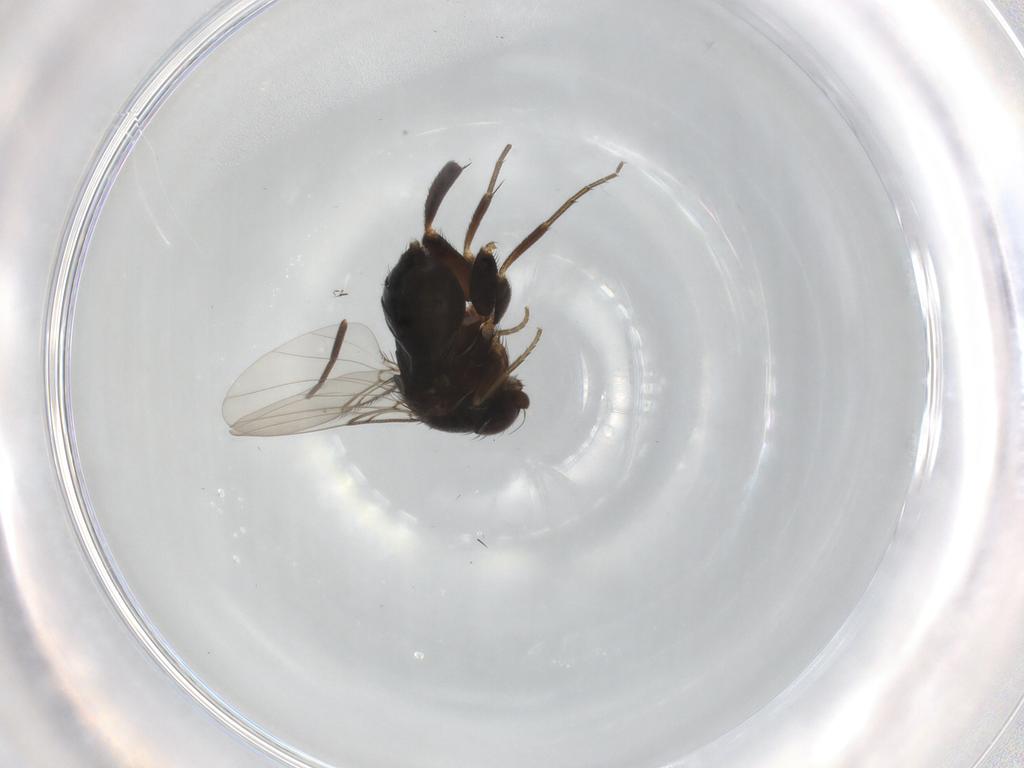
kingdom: Animalia
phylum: Arthropoda
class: Insecta
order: Diptera
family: Phoridae
